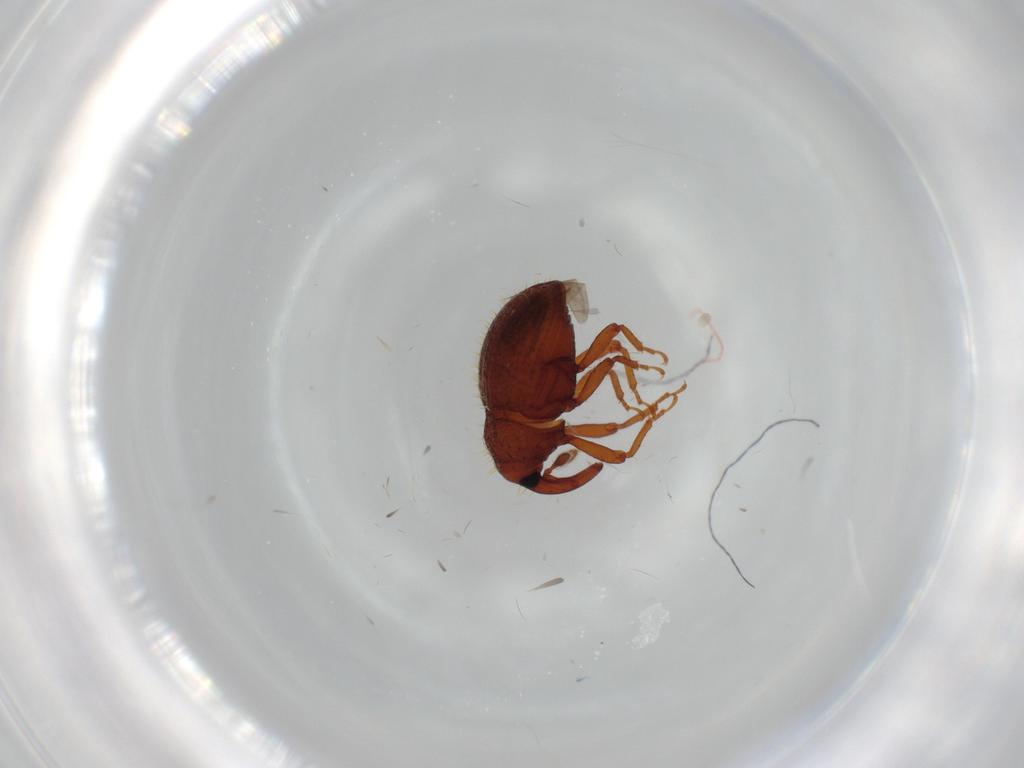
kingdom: Animalia
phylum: Arthropoda
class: Insecta
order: Coleoptera
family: Curculionidae
